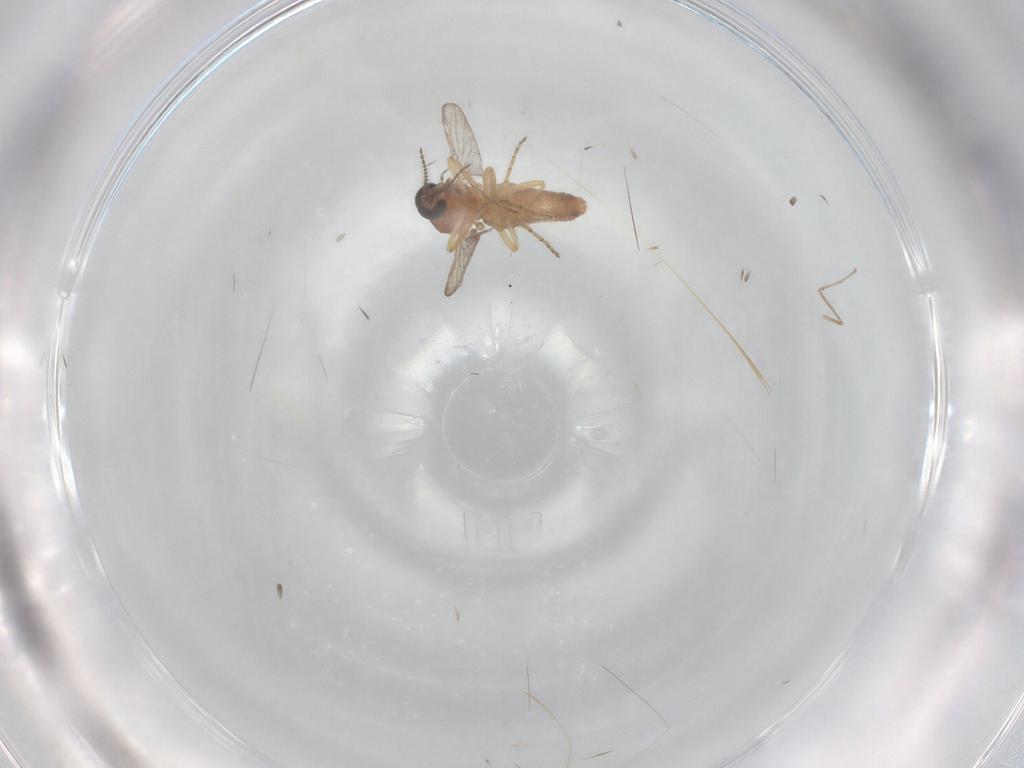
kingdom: Animalia
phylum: Arthropoda
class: Insecta
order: Diptera
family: Ceratopogonidae
